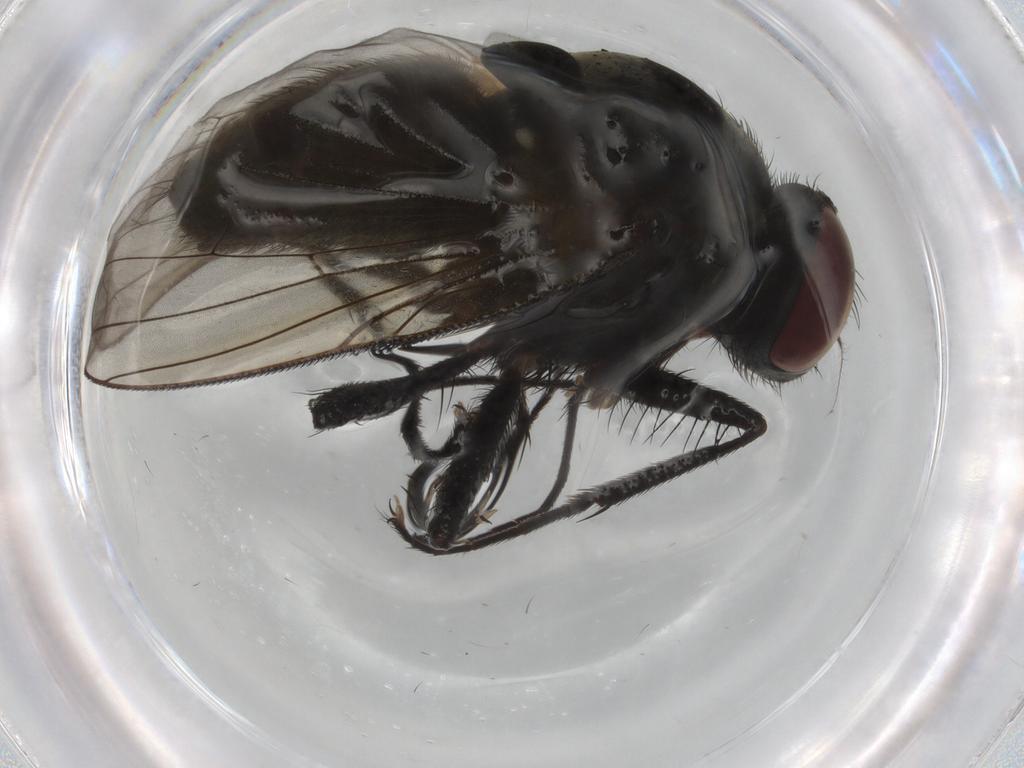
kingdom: Animalia
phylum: Arthropoda
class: Insecta
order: Diptera
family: Muscidae
